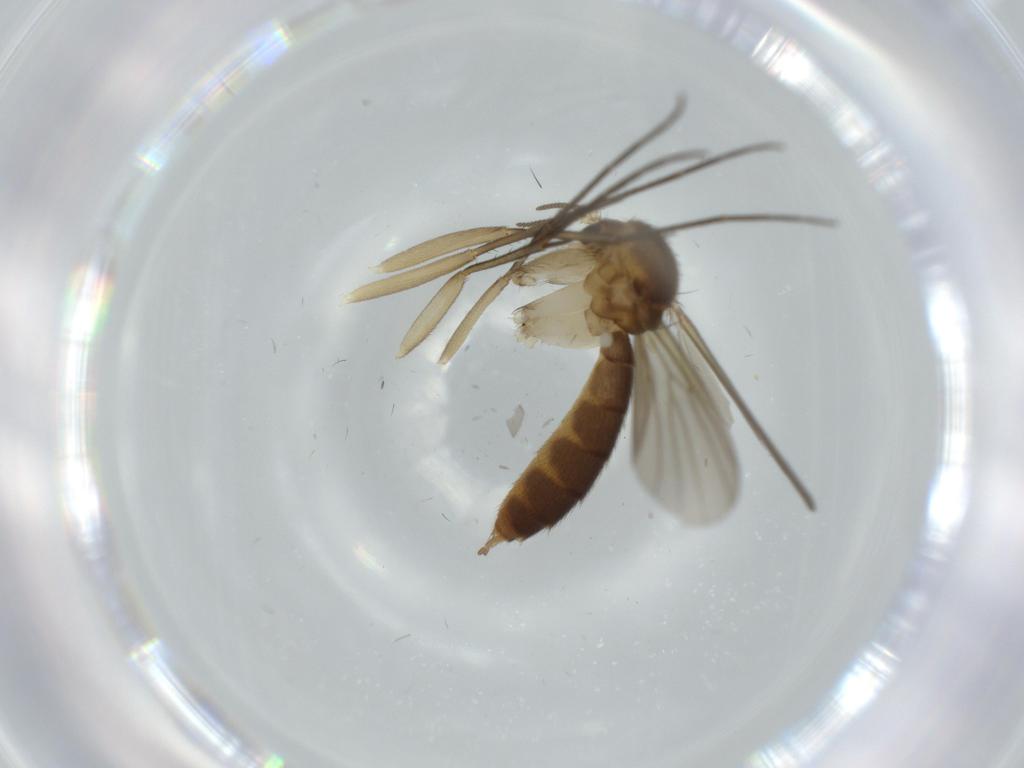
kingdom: Animalia
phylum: Arthropoda
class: Insecta
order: Diptera
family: Mycetophilidae
